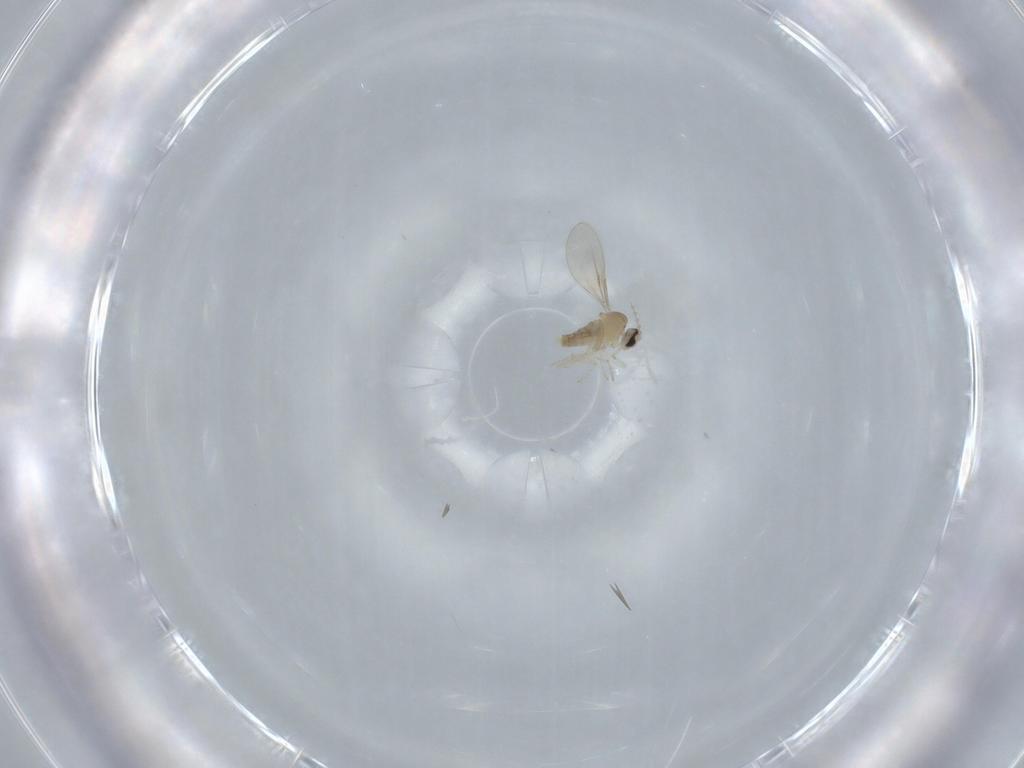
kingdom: Animalia
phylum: Arthropoda
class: Insecta
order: Diptera
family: Cecidomyiidae
